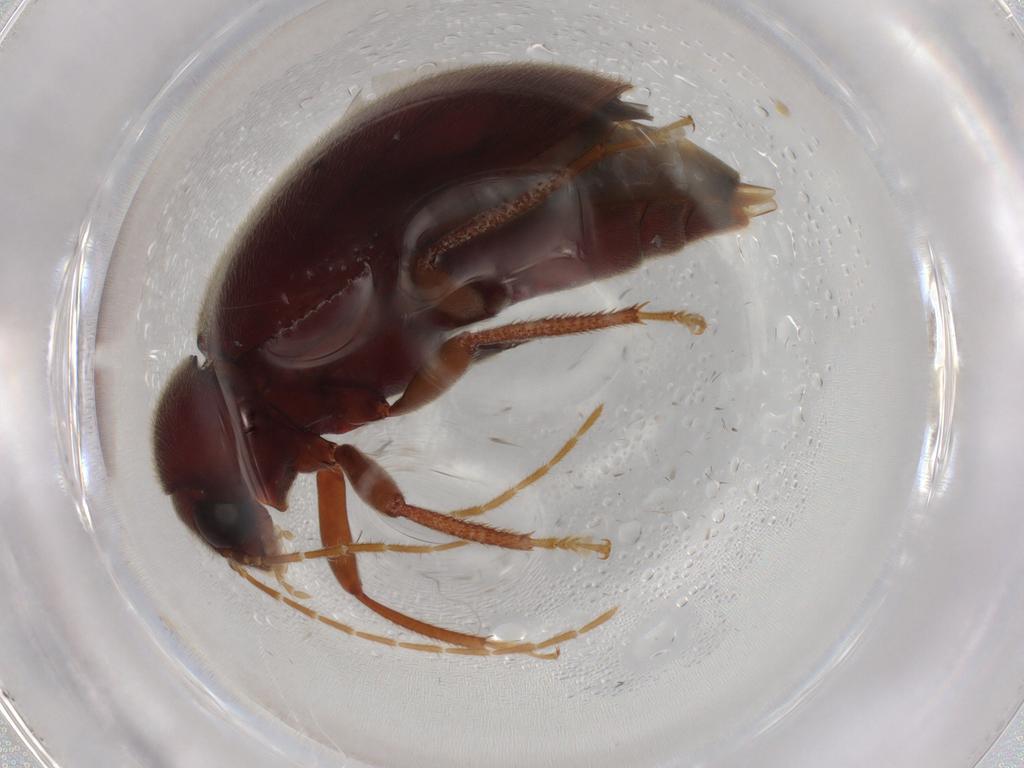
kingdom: Animalia
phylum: Arthropoda
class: Insecta
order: Coleoptera
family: Ptilodactylidae
